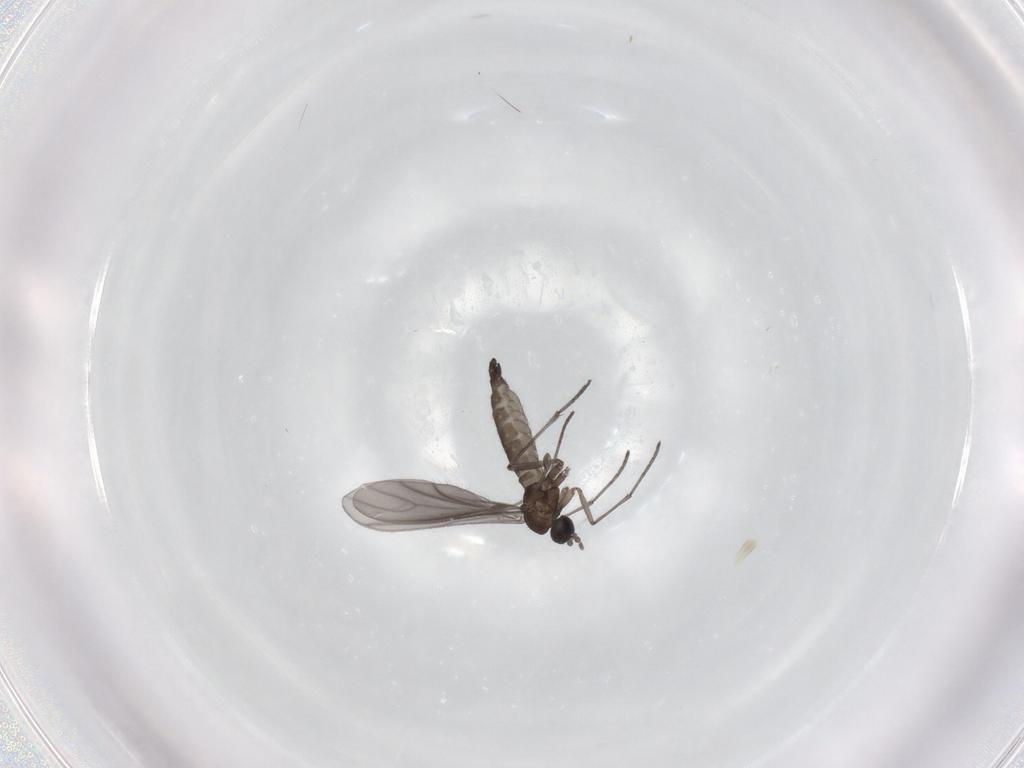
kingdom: Animalia
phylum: Arthropoda
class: Insecta
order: Diptera
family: Sciaridae
